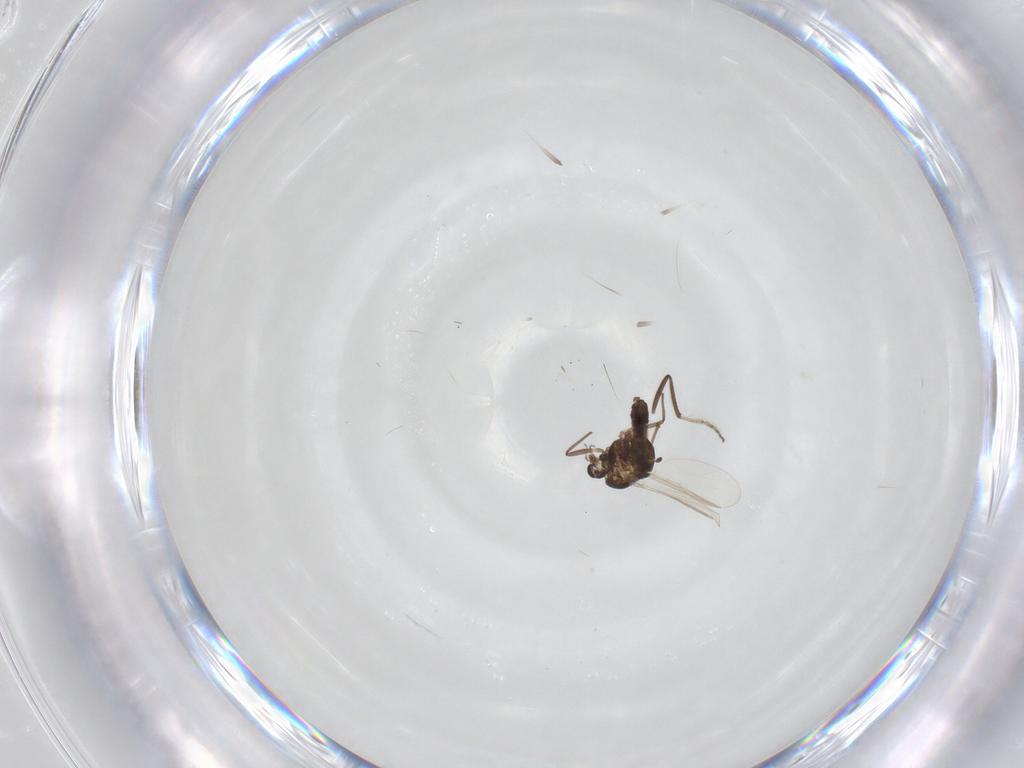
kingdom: Animalia
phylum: Arthropoda
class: Insecta
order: Diptera
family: Chironomidae
